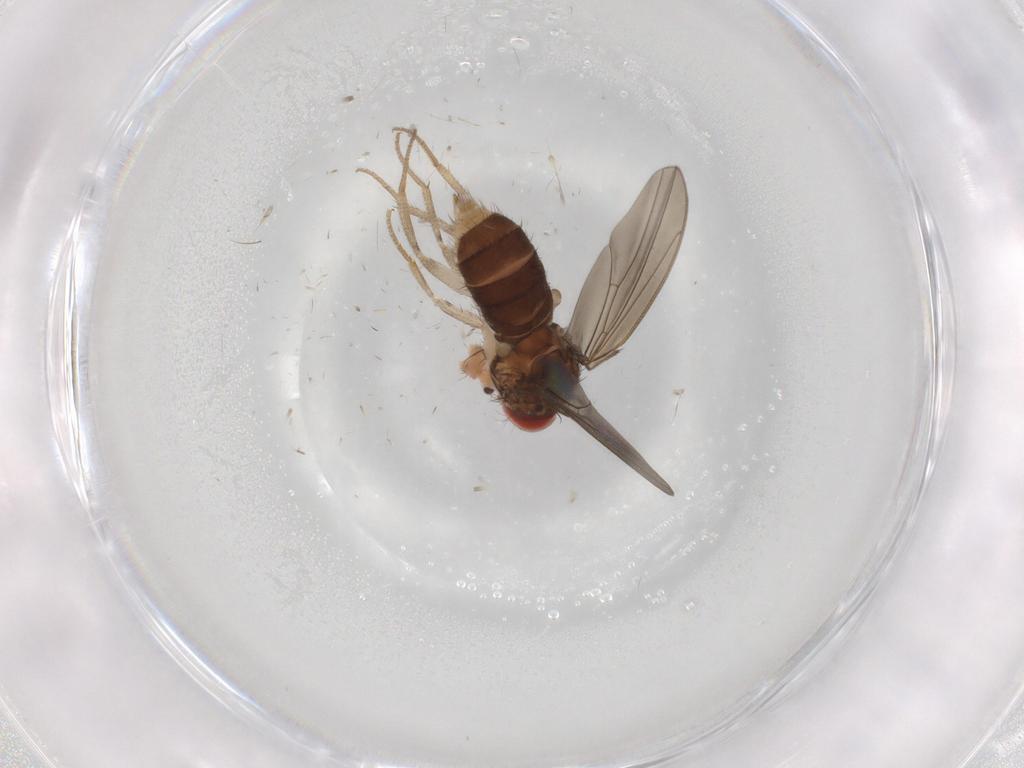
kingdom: Animalia
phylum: Arthropoda
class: Insecta
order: Diptera
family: Drosophilidae
